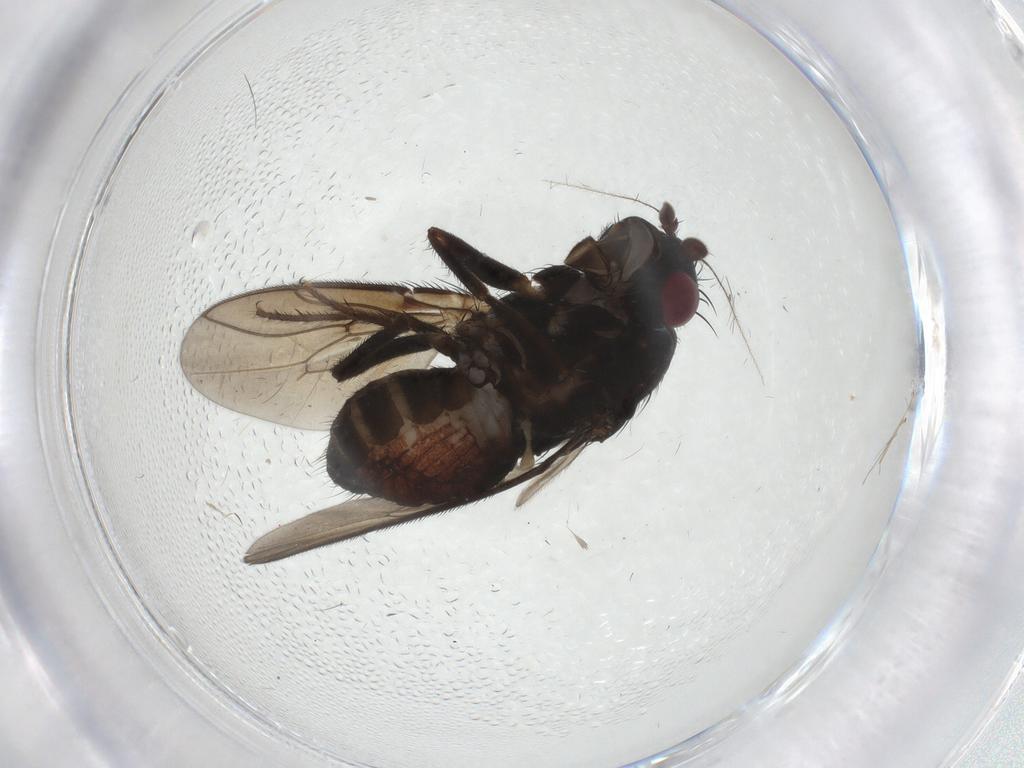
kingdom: Animalia
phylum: Arthropoda
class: Insecta
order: Diptera
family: Sphaeroceridae
